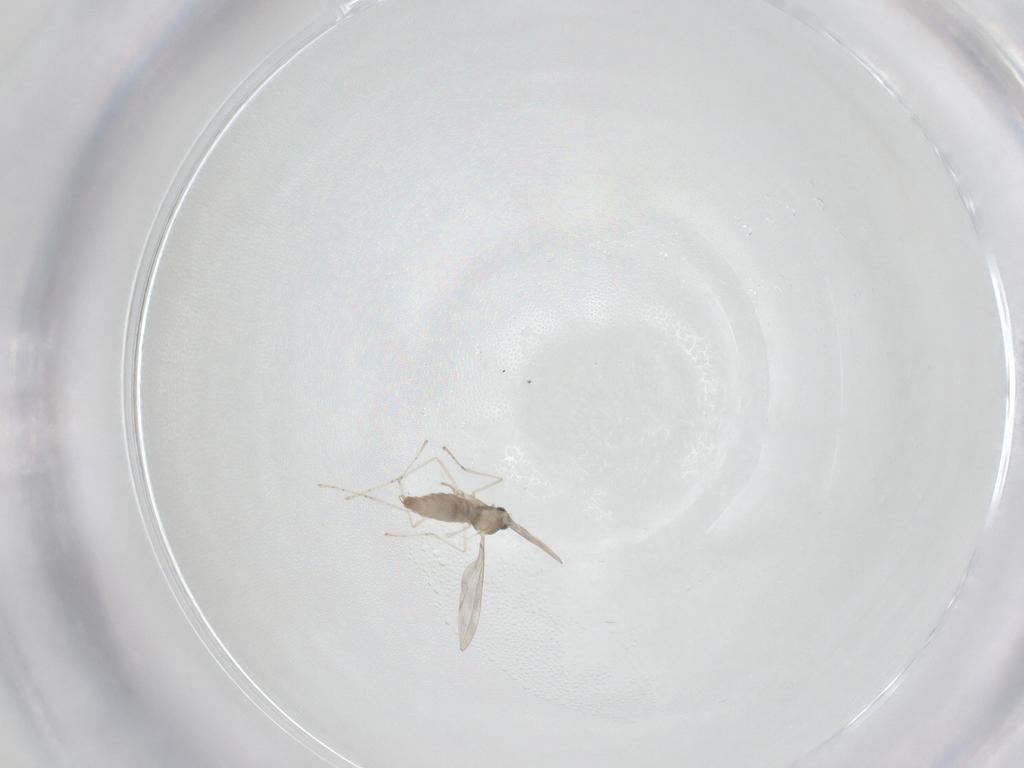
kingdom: Animalia
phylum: Arthropoda
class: Insecta
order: Diptera
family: Cecidomyiidae
